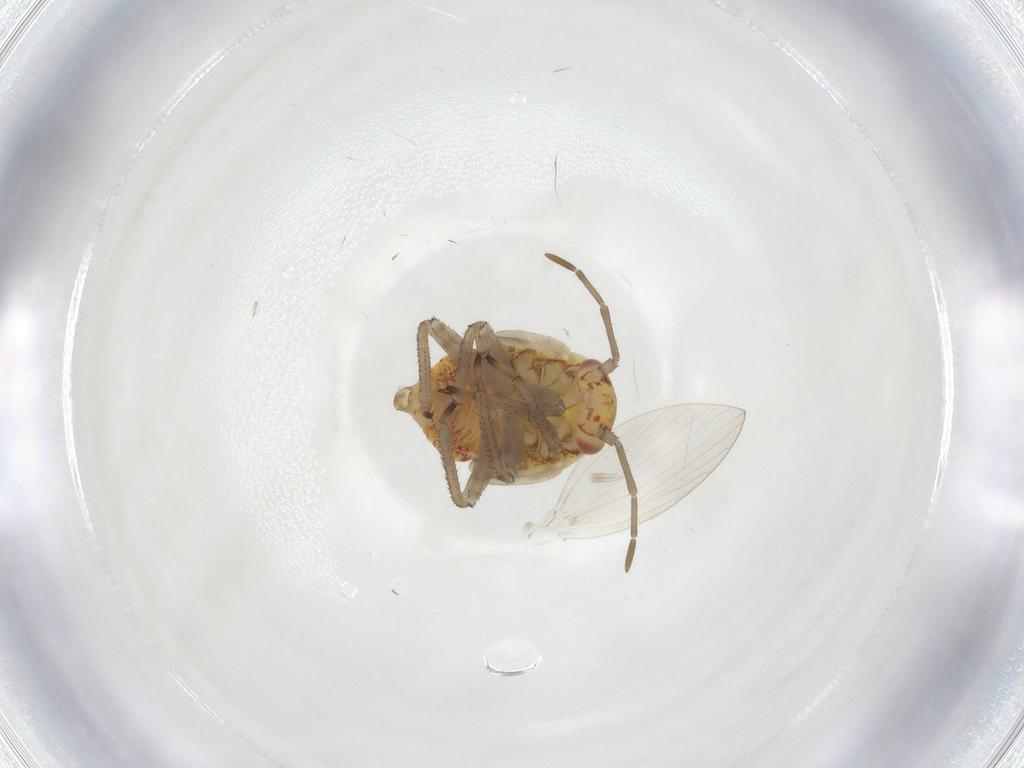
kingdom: Animalia
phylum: Arthropoda
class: Insecta
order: Hemiptera
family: Miridae
